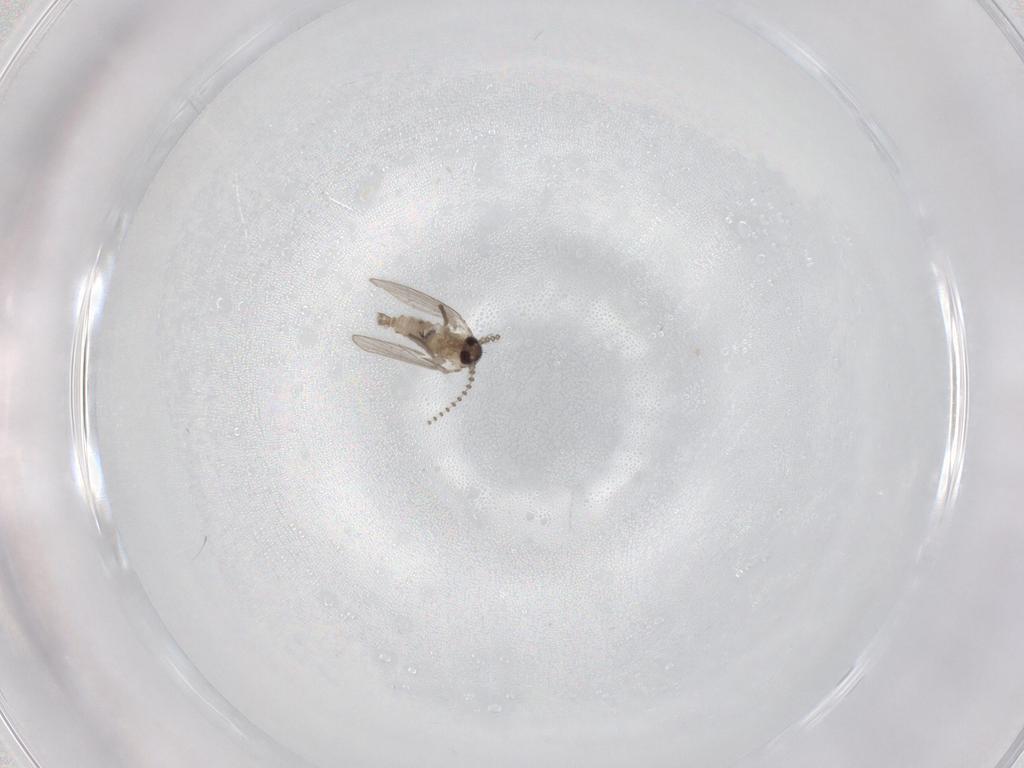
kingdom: Animalia
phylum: Arthropoda
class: Insecta
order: Diptera
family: Psychodidae
